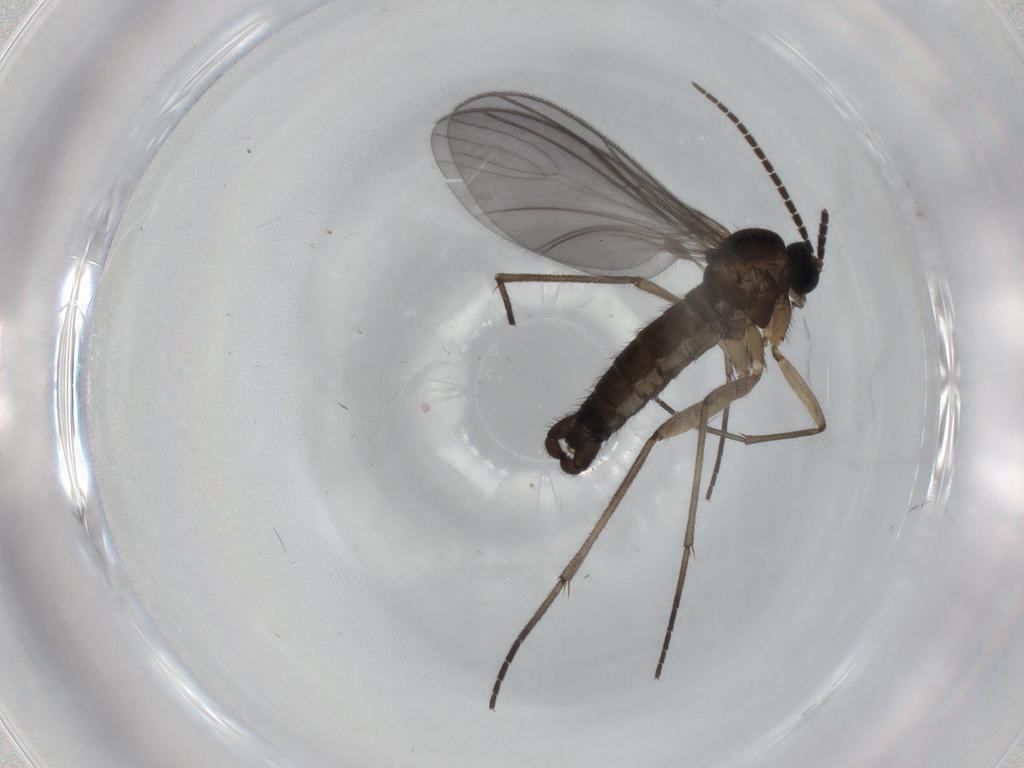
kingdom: Animalia
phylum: Arthropoda
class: Insecta
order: Diptera
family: Sciaridae
